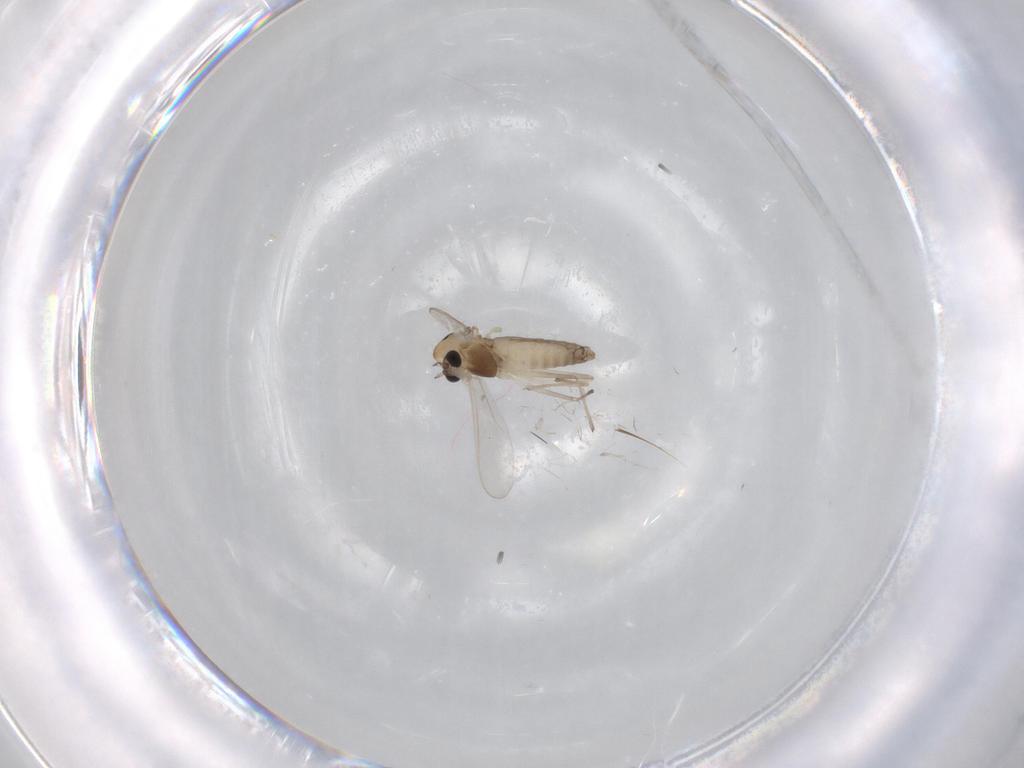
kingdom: Animalia
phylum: Arthropoda
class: Insecta
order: Diptera
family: Chironomidae
